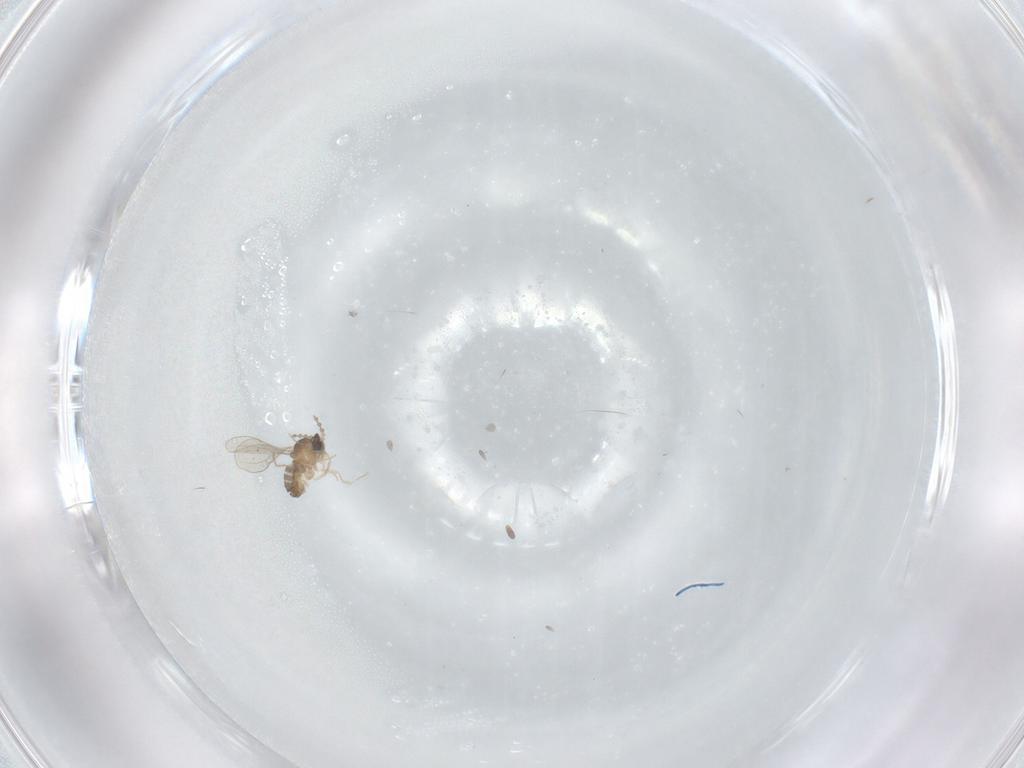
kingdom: Animalia
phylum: Arthropoda
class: Insecta
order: Diptera
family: Cecidomyiidae
